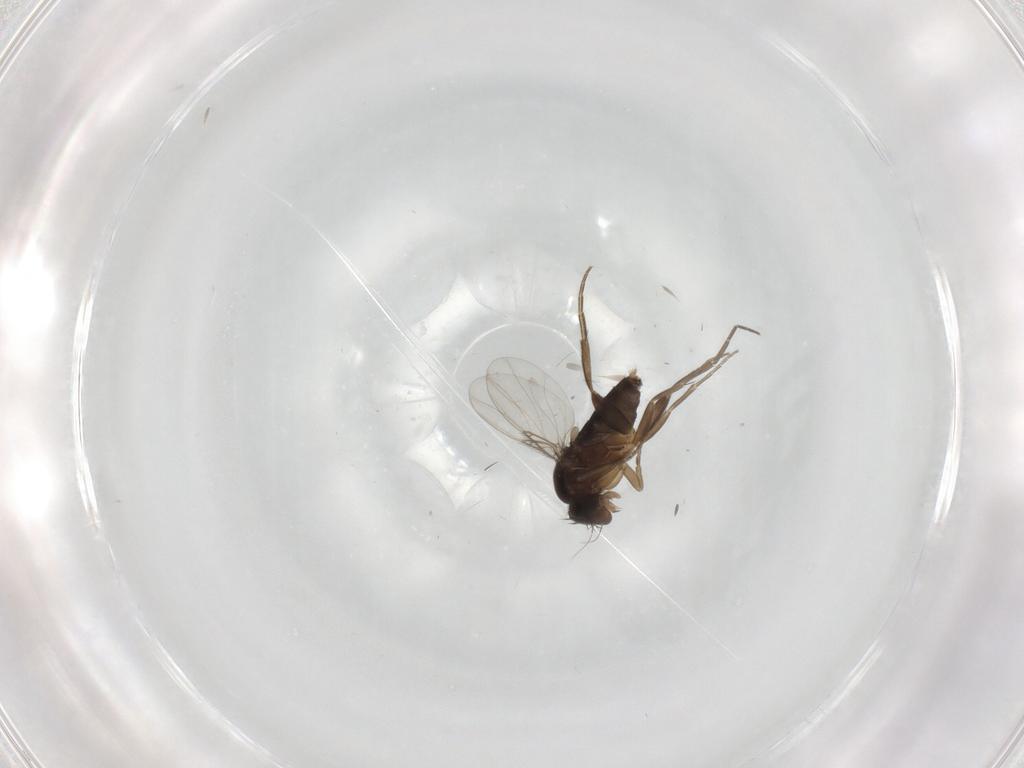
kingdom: Animalia
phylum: Arthropoda
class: Insecta
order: Diptera
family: Phoridae
